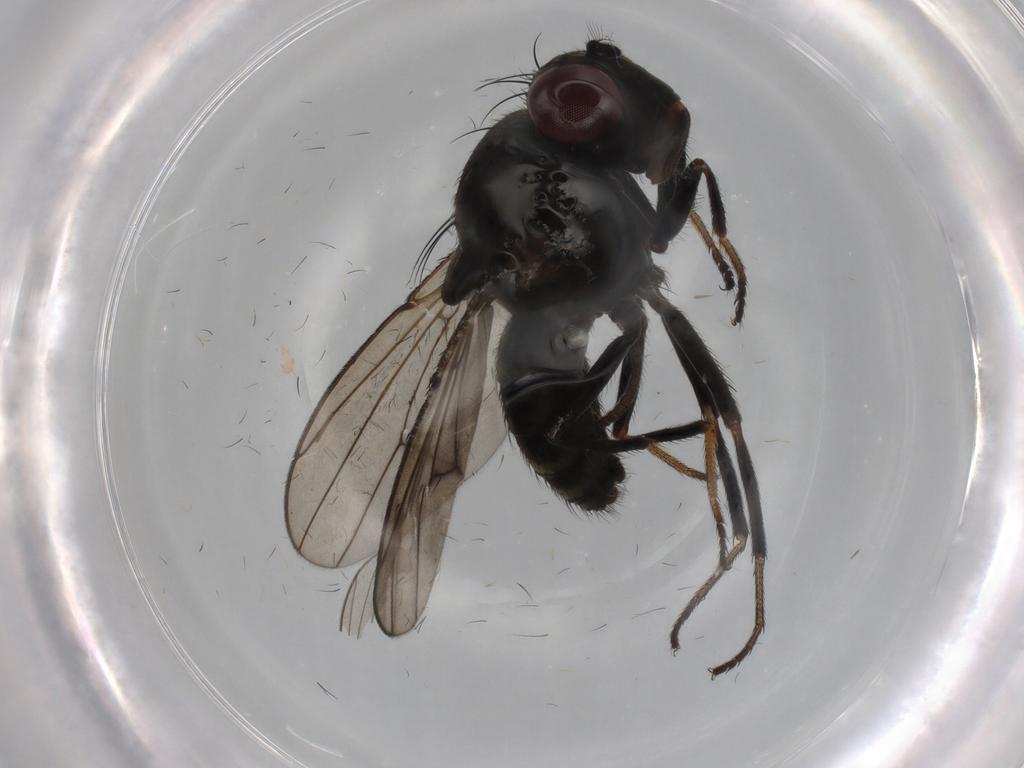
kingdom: Animalia
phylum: Arthropoda
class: Insecta
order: Diptera
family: Ephydridae
